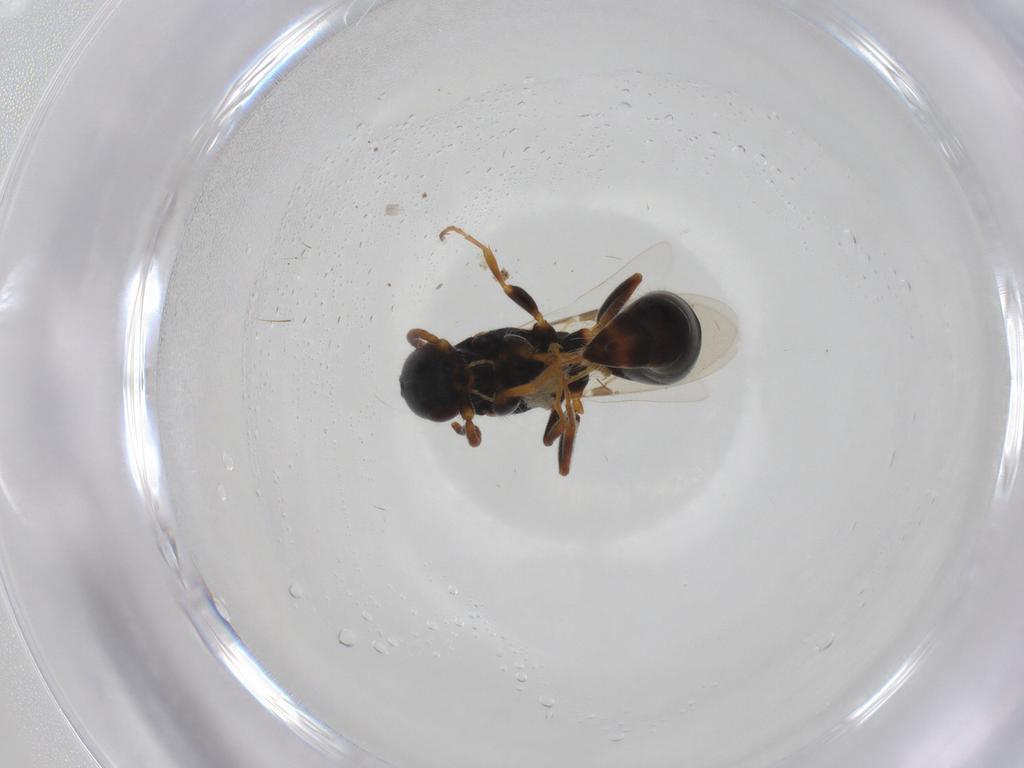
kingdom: Animalia
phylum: Arthropoda
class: Insecta
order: Hymenoptera
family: Bethylidae
